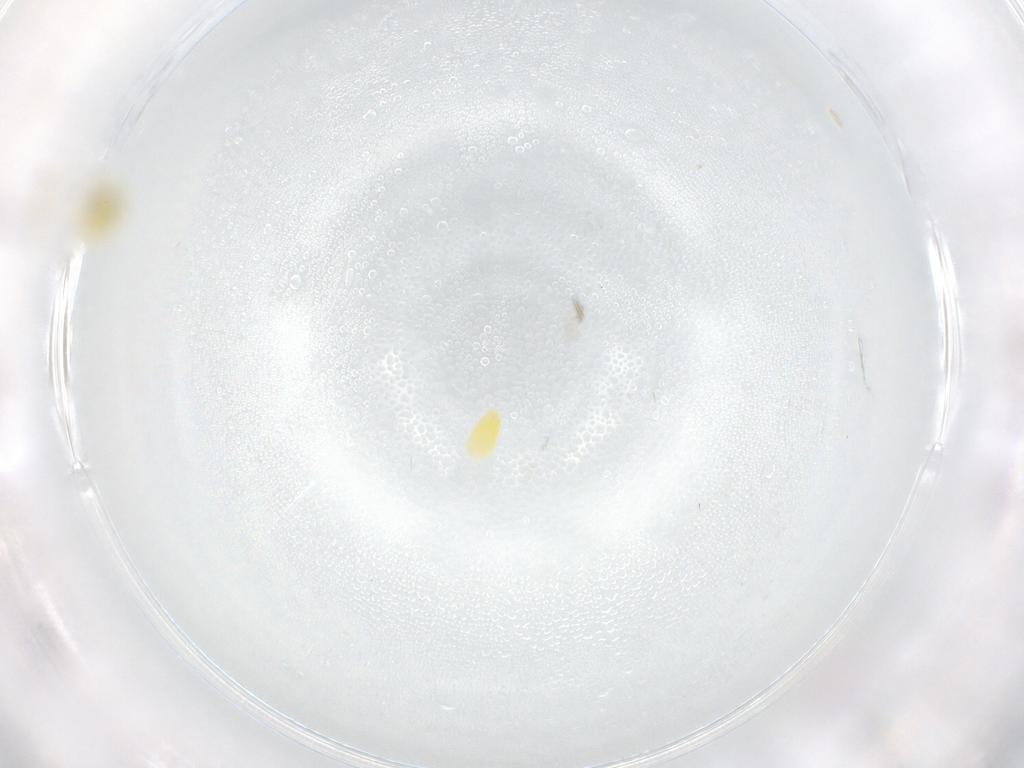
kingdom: Animalia
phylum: Arthropoda
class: Insecta
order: Hemiptera
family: Aleyrodidae
